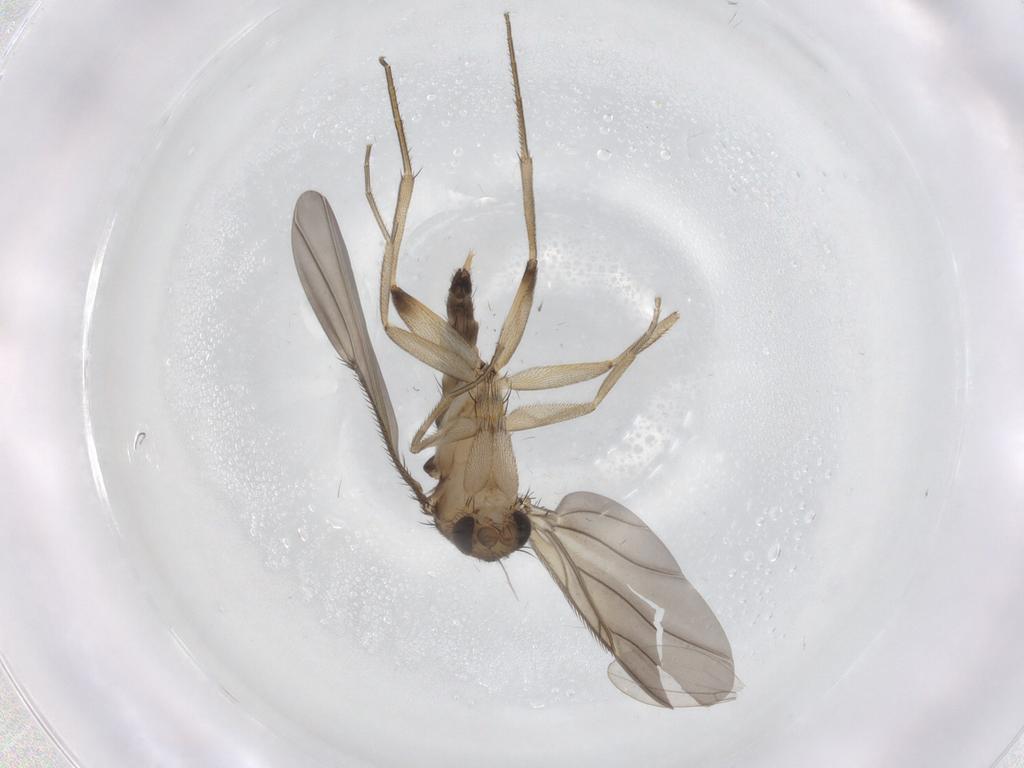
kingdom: Animalia
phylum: Arthropoda
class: Insecta
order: Diptera
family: Phoridae
